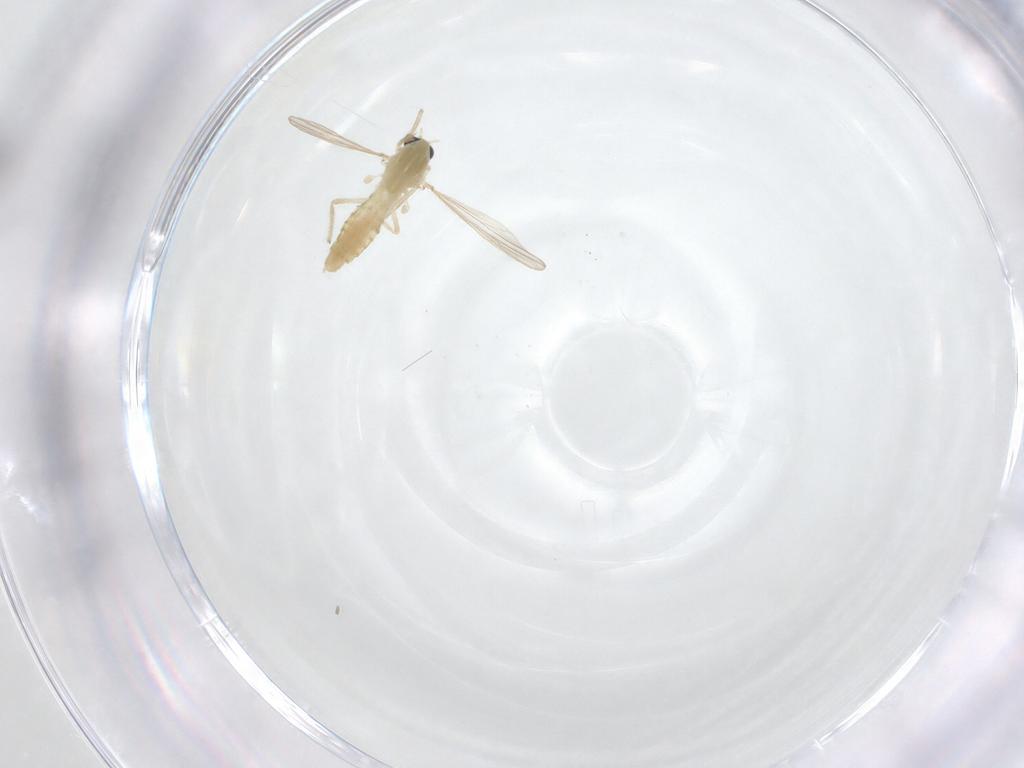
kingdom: Animalia
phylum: Arthropoda
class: Insecta
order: Diptera
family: Chironomidae
